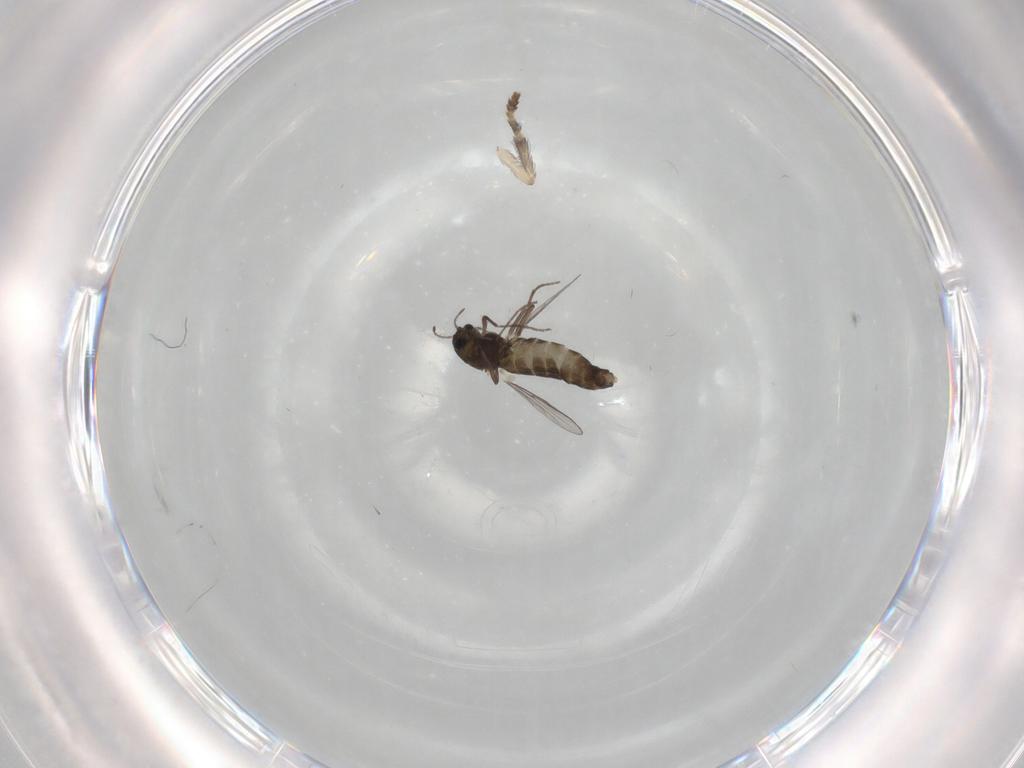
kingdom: Animalia
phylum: Arthropoda
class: Insecta
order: Diptera
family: Chironomidae
